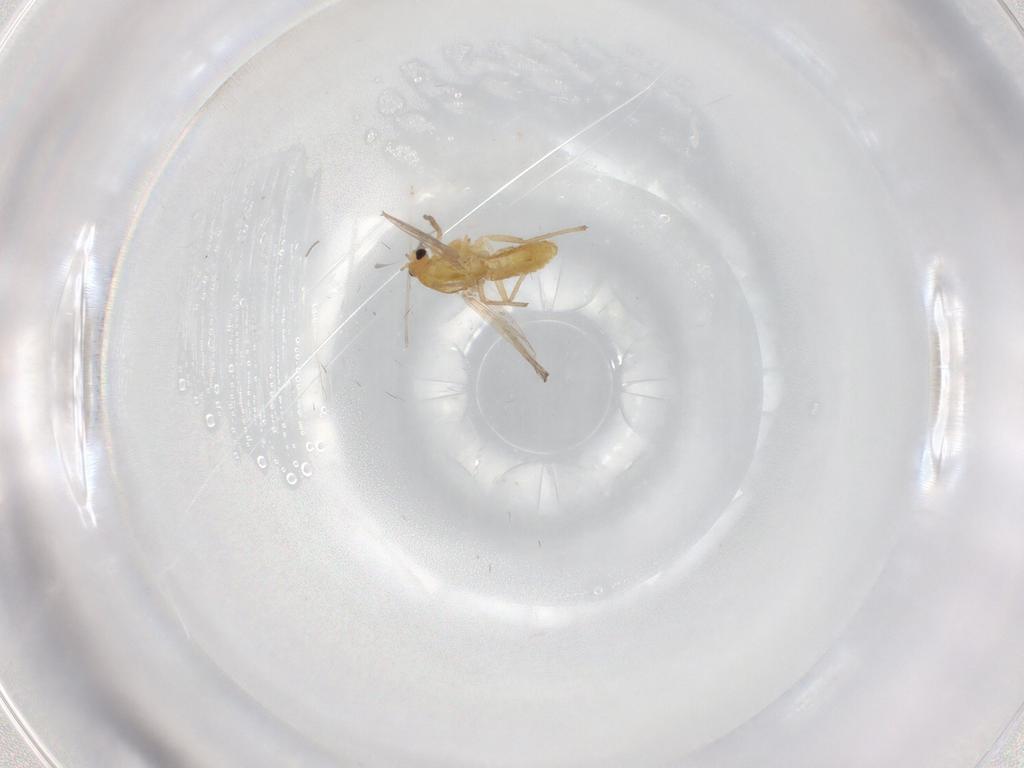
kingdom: Animalia
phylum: Arthropoda
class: Insecta
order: Diptera
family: Cecidomyiidae
